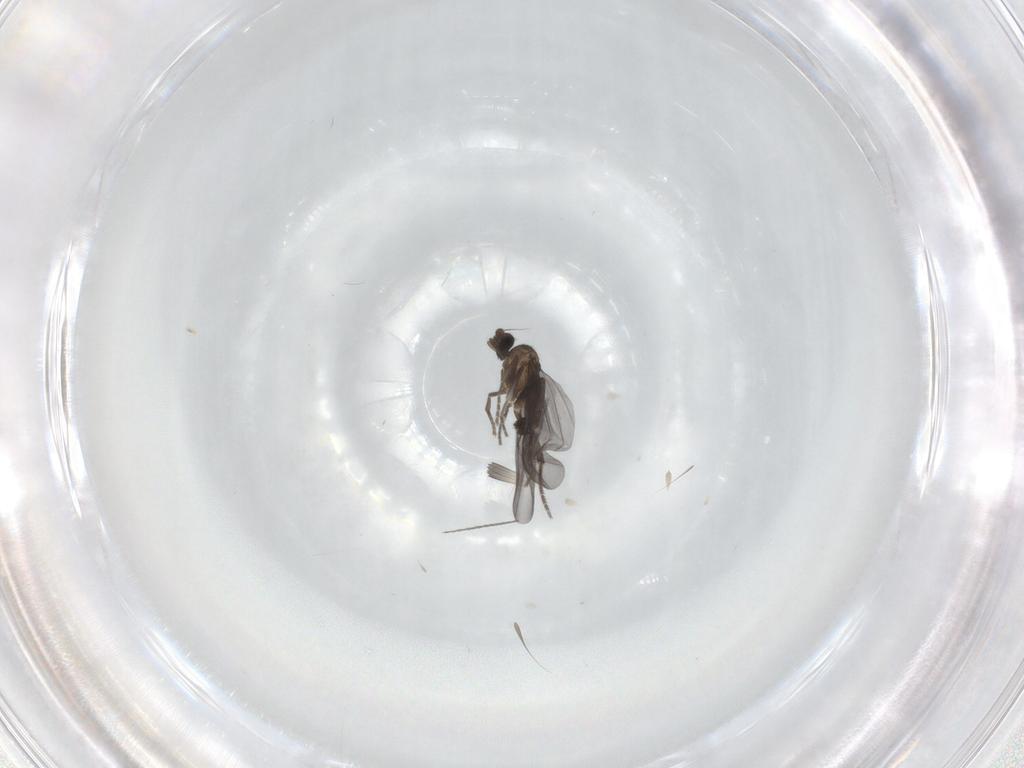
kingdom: Animalia
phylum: Arthropoda
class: Insecta
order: Diptera
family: Phoridae
